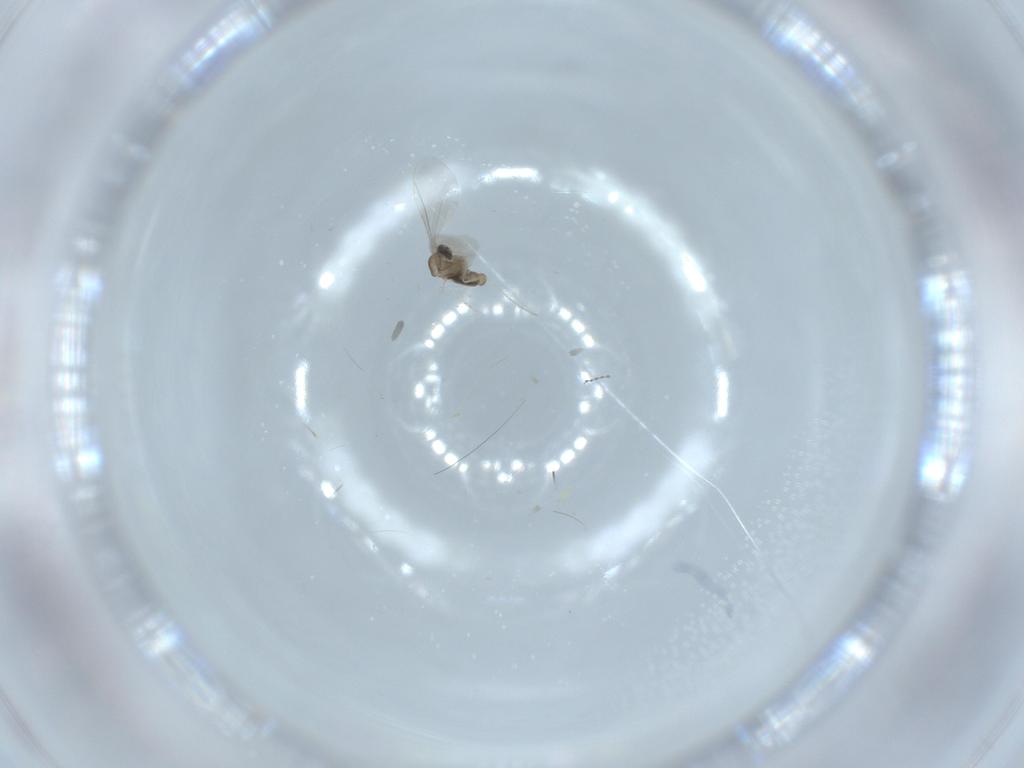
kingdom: Animalia
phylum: Arthropoda
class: Insecta
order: Diptera
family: Cecidomyiidae
